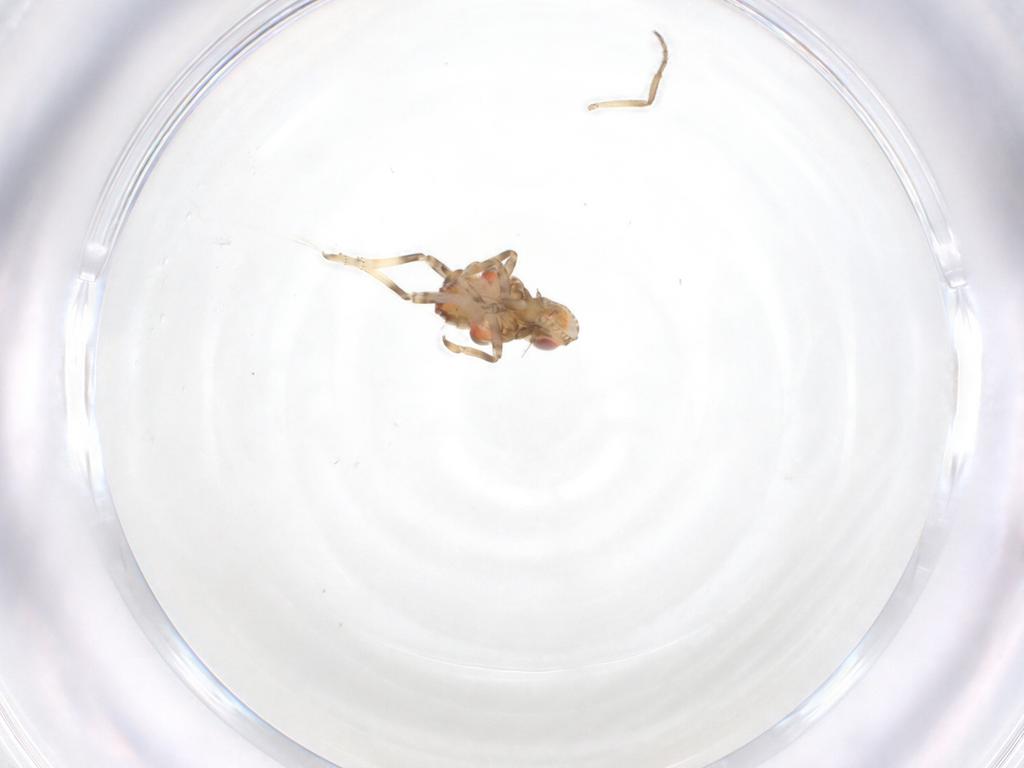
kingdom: Animalia
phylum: Arthropoda
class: Insecta
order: Hemiptera
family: Tropiduchidae
